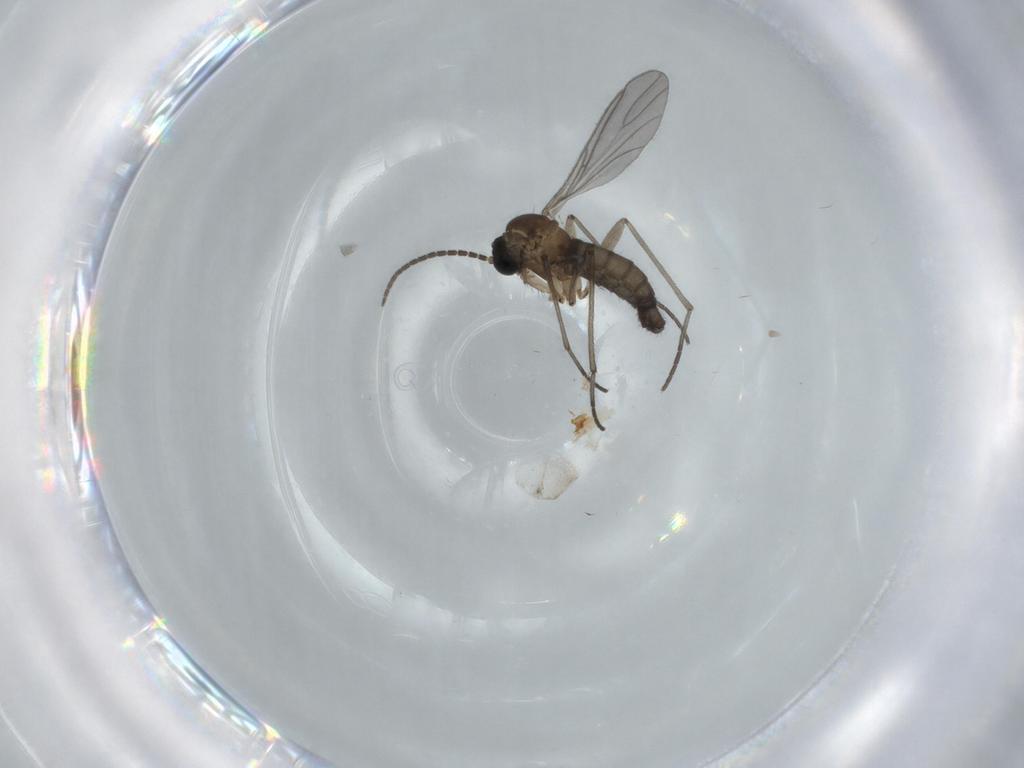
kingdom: Animalia
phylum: Arthropoda
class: Insecta
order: Diptera
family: Sciaridae
